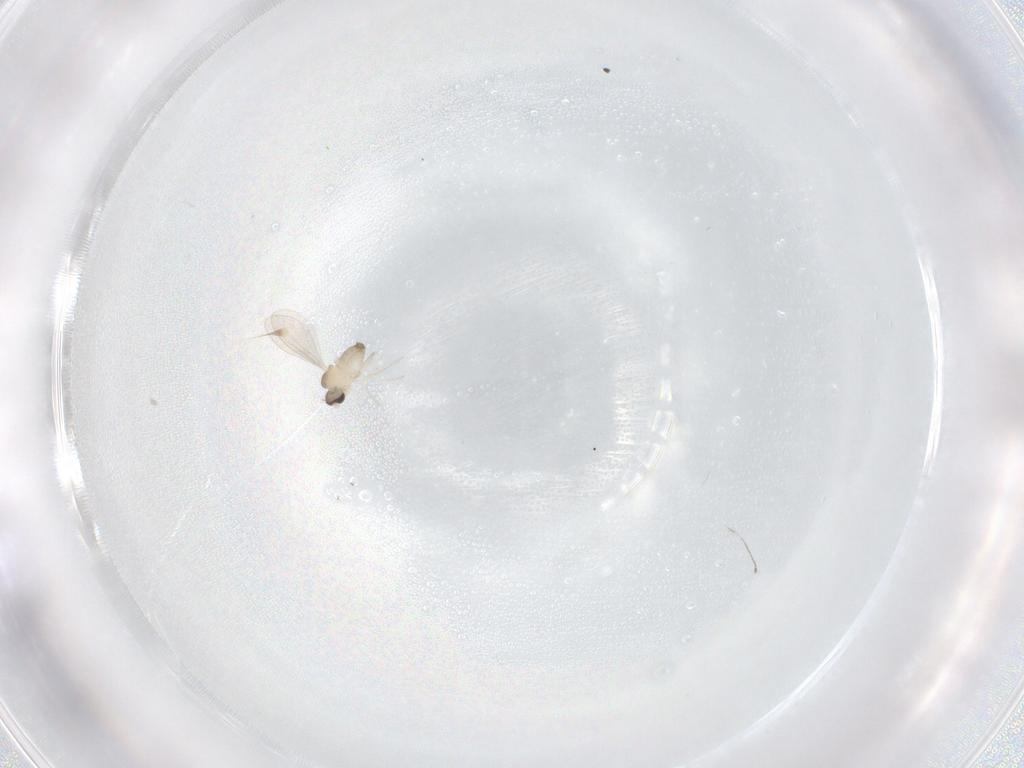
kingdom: Animalia
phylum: Arthropoda
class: Insecta
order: Diptera
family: Cecidomyiidae
